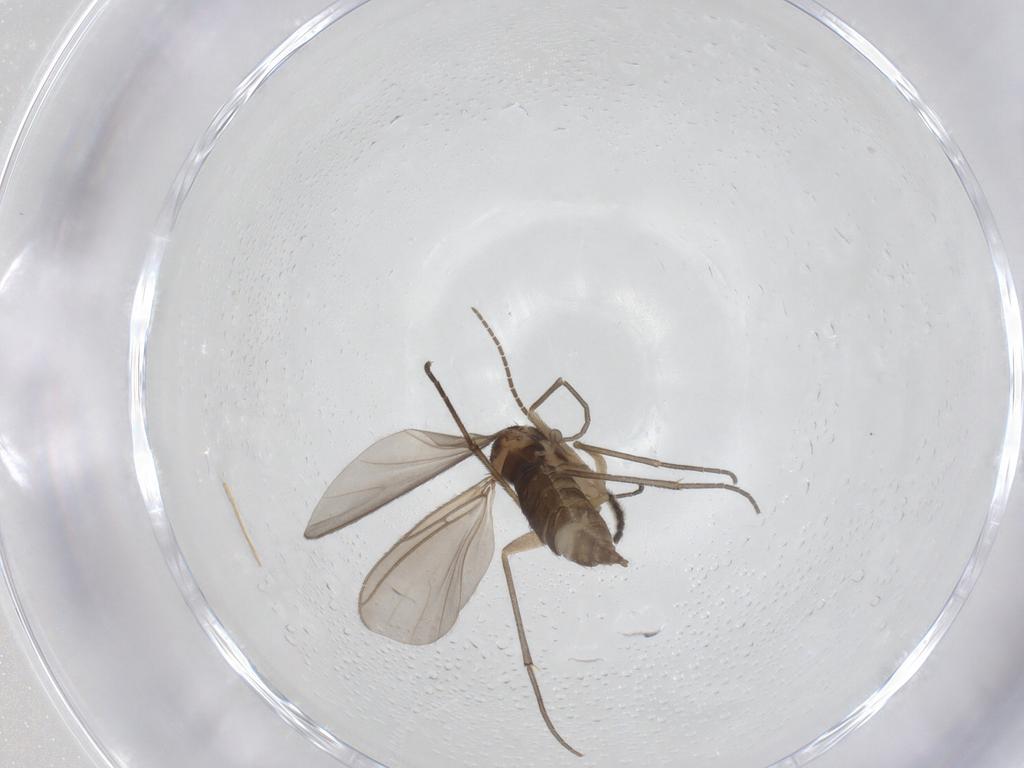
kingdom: Animalia
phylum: Arthropoda
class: Insecta
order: Diptera
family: Sciaridae
